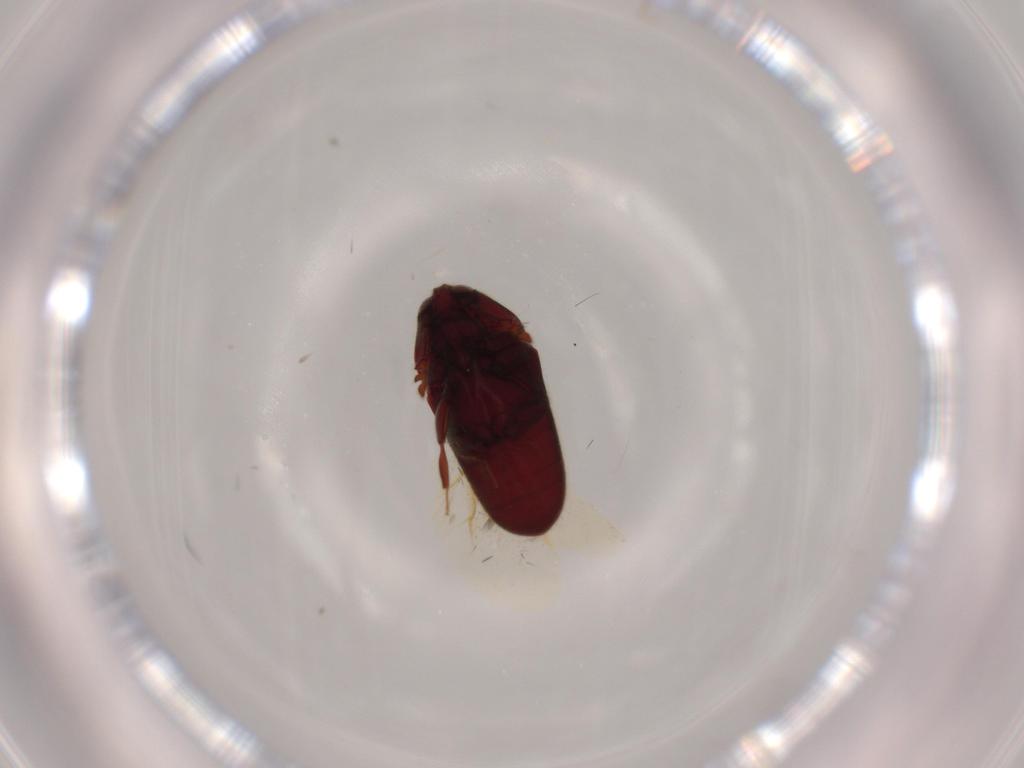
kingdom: Animalia
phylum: Arthropoda
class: Insecta
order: Coleoptera
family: Throscidae
